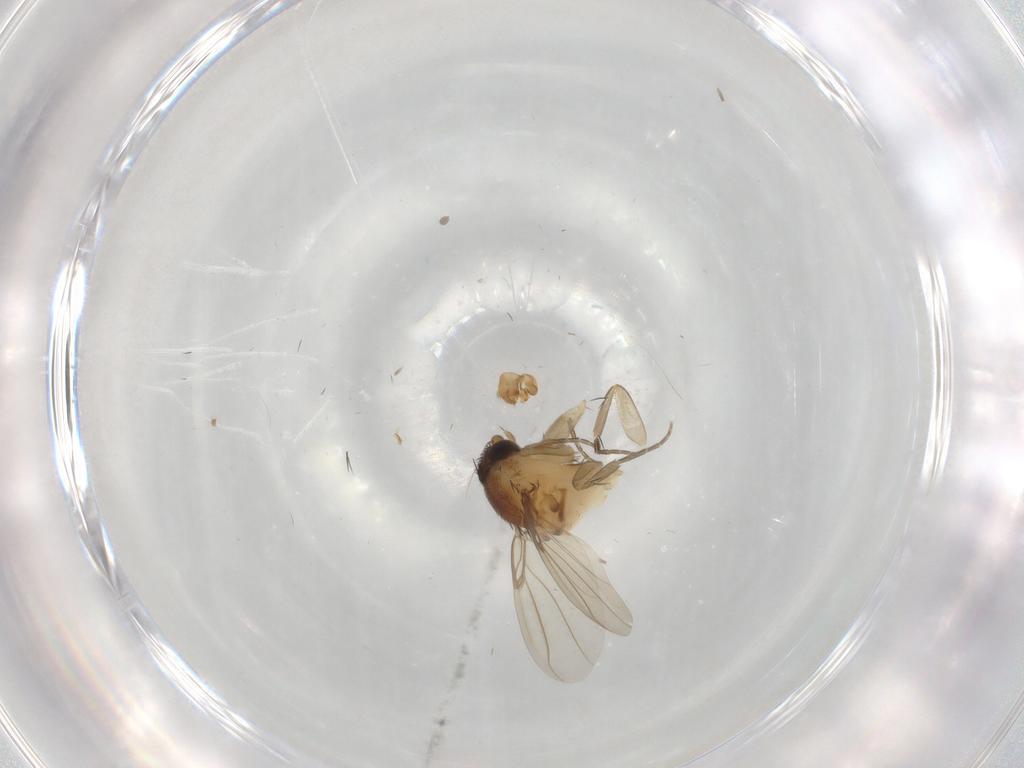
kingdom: Animalia
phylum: Arthropoda
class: Insecta
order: Diptera
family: Phoridae
